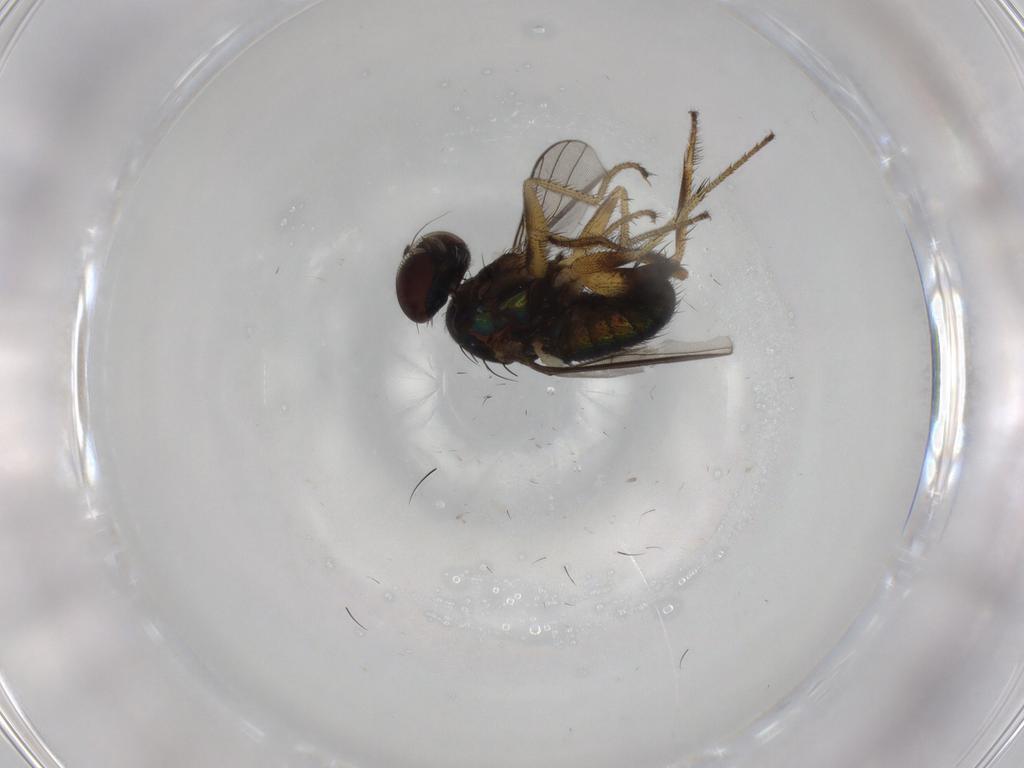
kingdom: Animalia
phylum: Arthropoda
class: Insecta
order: Diptera
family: Dolichopodidae
